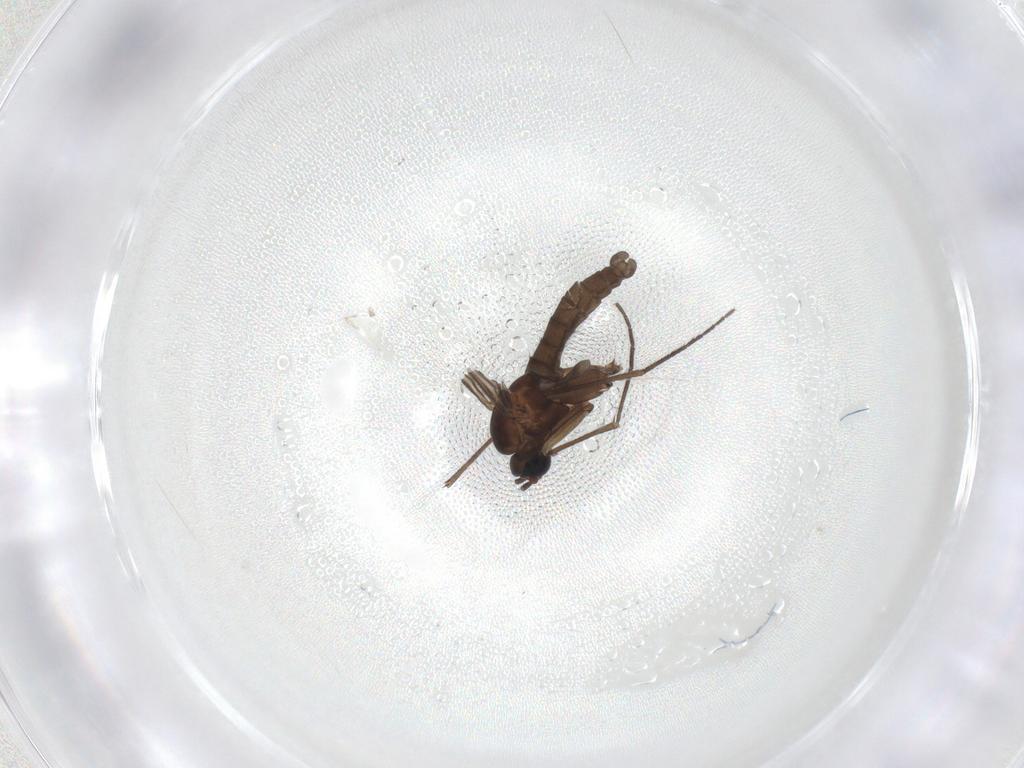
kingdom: Animalia
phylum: Arthropoda
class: Insecta
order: Diptera
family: Sciaridae
